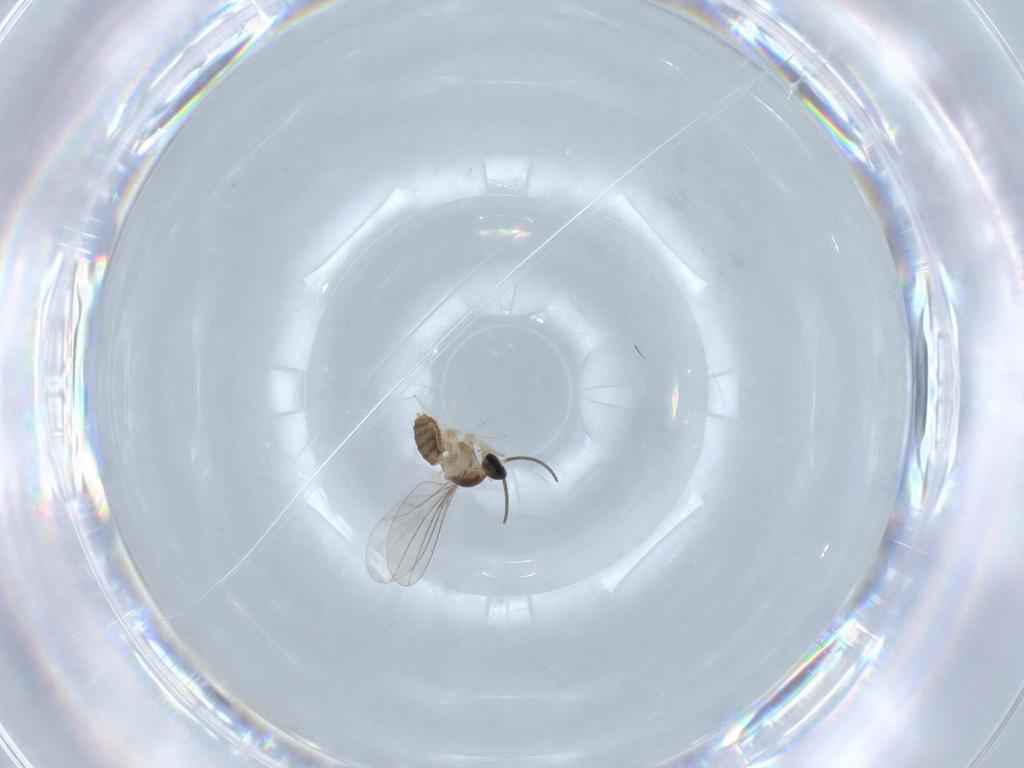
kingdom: Animalia
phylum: Arthropoda
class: Insecta
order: Diptera
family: Cecidomyiidae
